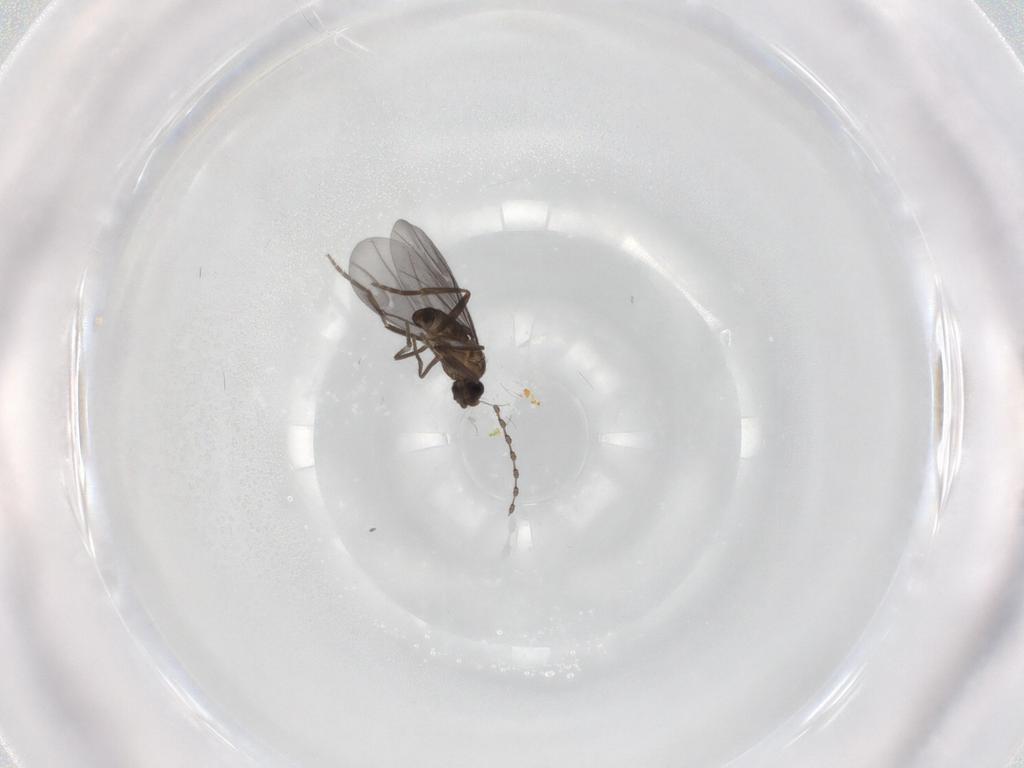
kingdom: Animalia
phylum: Arthropoda
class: Insecta
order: Diptera
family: Phoridae
